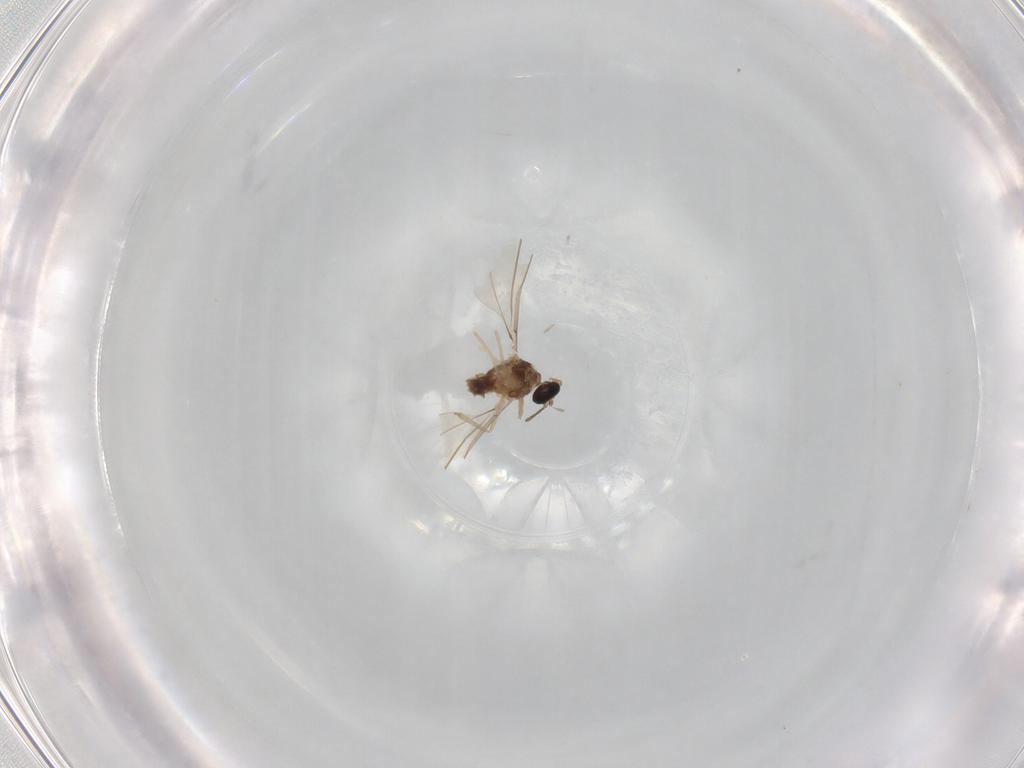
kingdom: Animalia
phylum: Arthropoda
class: Insecta
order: Diptera
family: Cecidomyiidae
